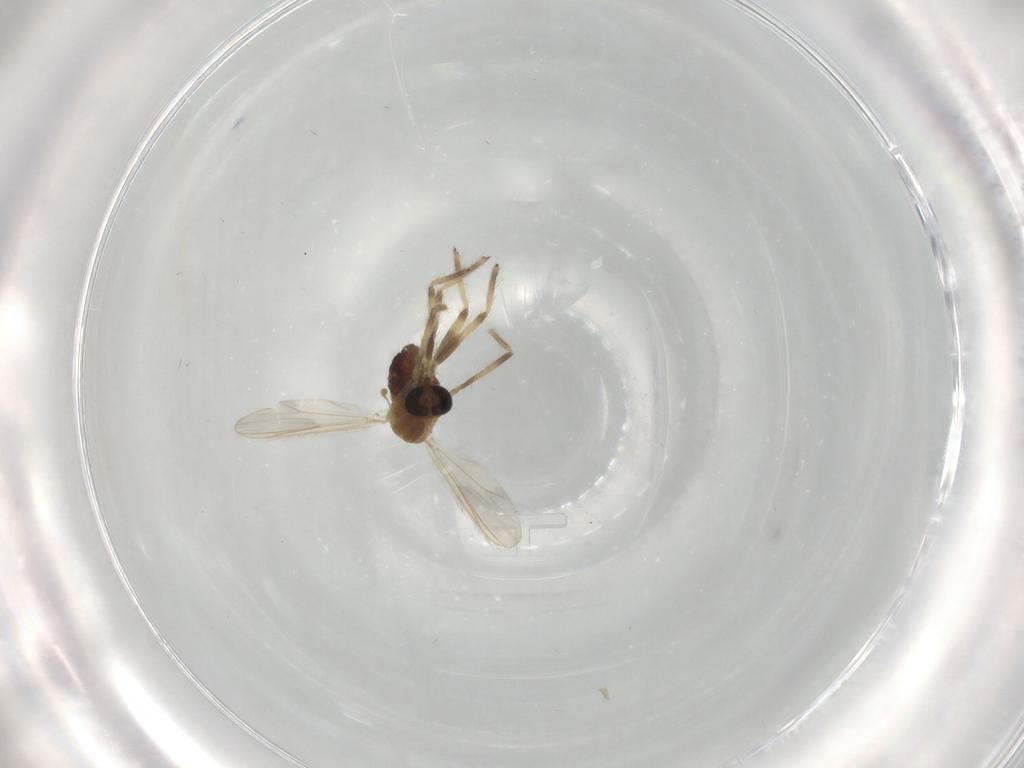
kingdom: Animalia
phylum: Arthropoda
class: Insecta
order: Diptera
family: Chironomidae
